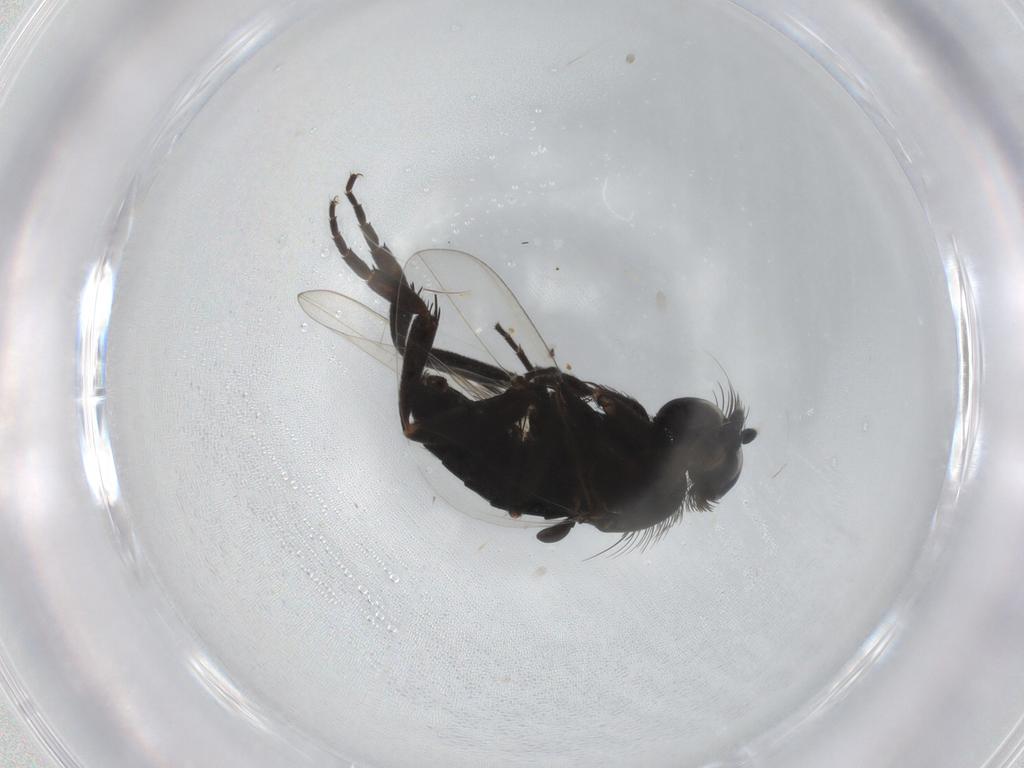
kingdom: Animalia
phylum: Arthropoda
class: Insecta
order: Diptera
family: Phoridae
